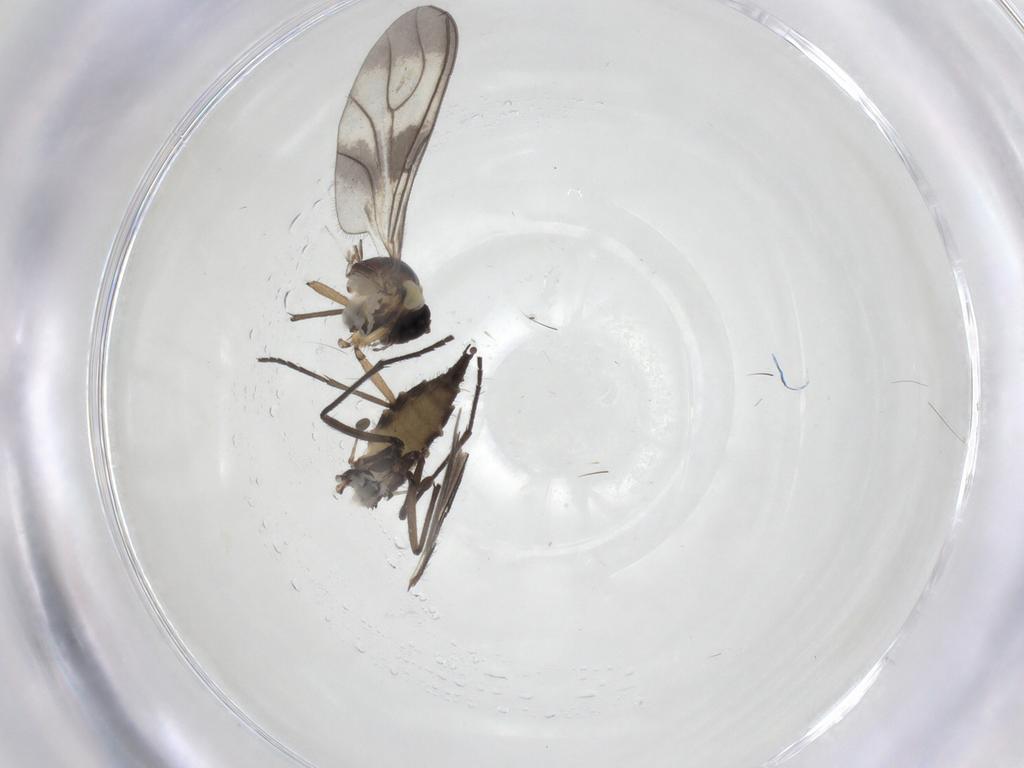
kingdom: Animalia
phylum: Arthropoda
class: Insecta
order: Diptera
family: Sciaridae
